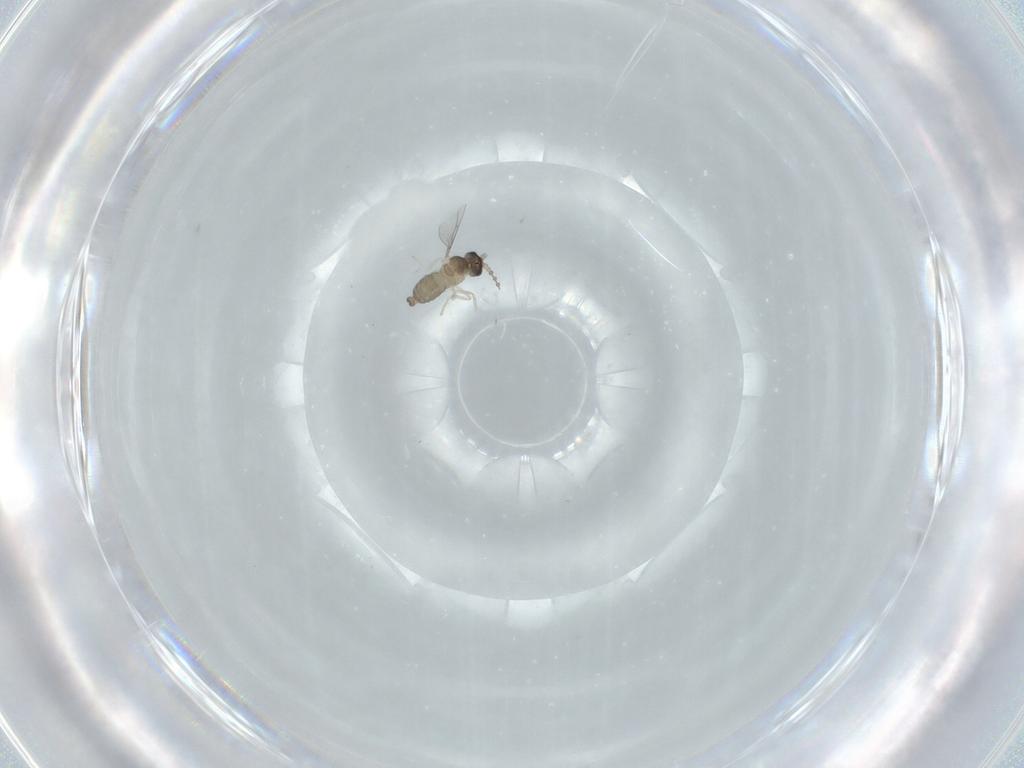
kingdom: Animalia
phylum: Arthropoda
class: Insecta
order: Diptera
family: Cecidomyiidae
